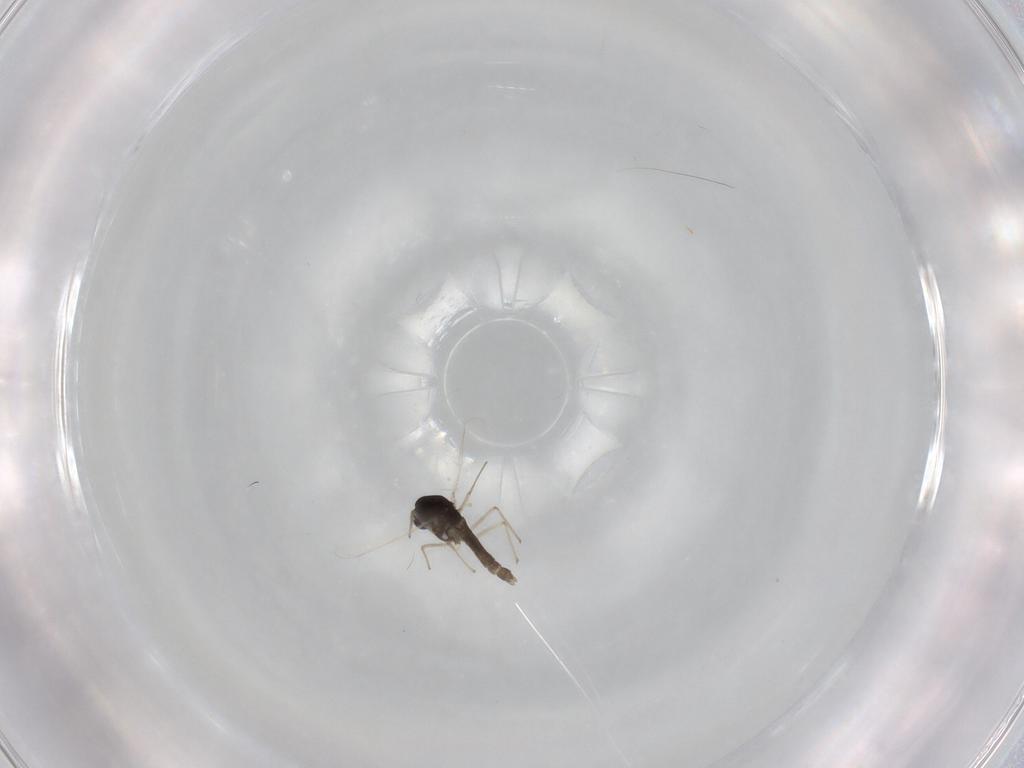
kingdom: Animalia
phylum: Arthropoda
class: Insecta
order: Diptera
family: Chironomidae
